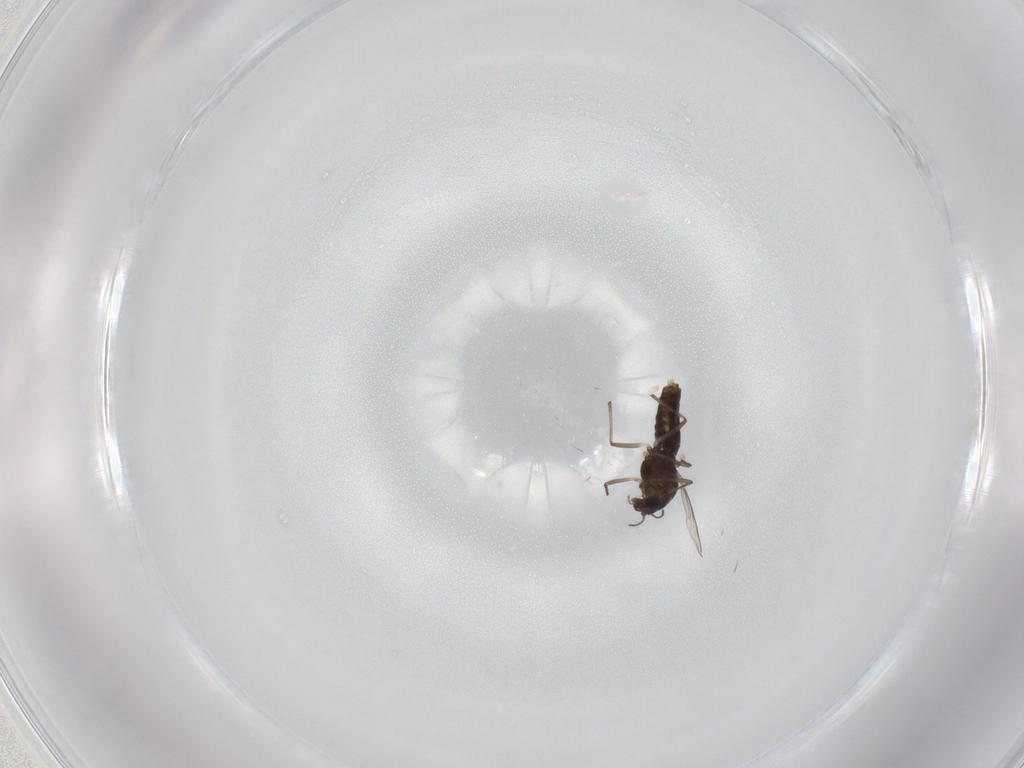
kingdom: Animalia
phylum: Arthropoda
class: Insecta
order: Diptera
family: Chironomidae
